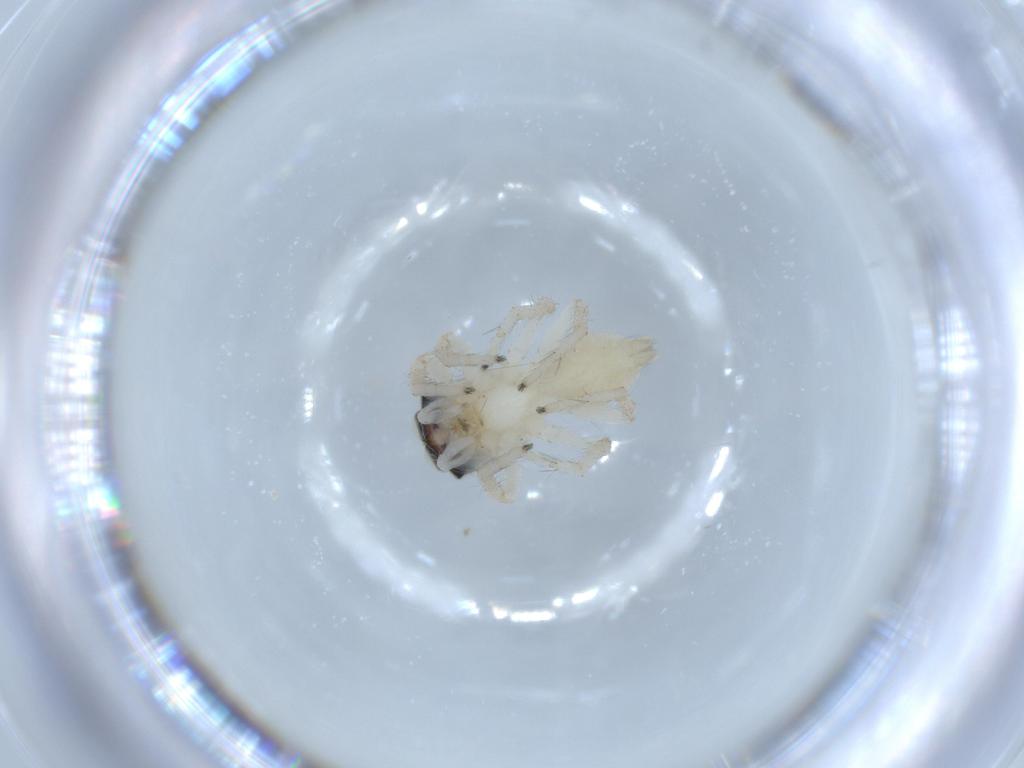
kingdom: Animalia
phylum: Arthropoda
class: Arachnida
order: Araneae
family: Salticidae
